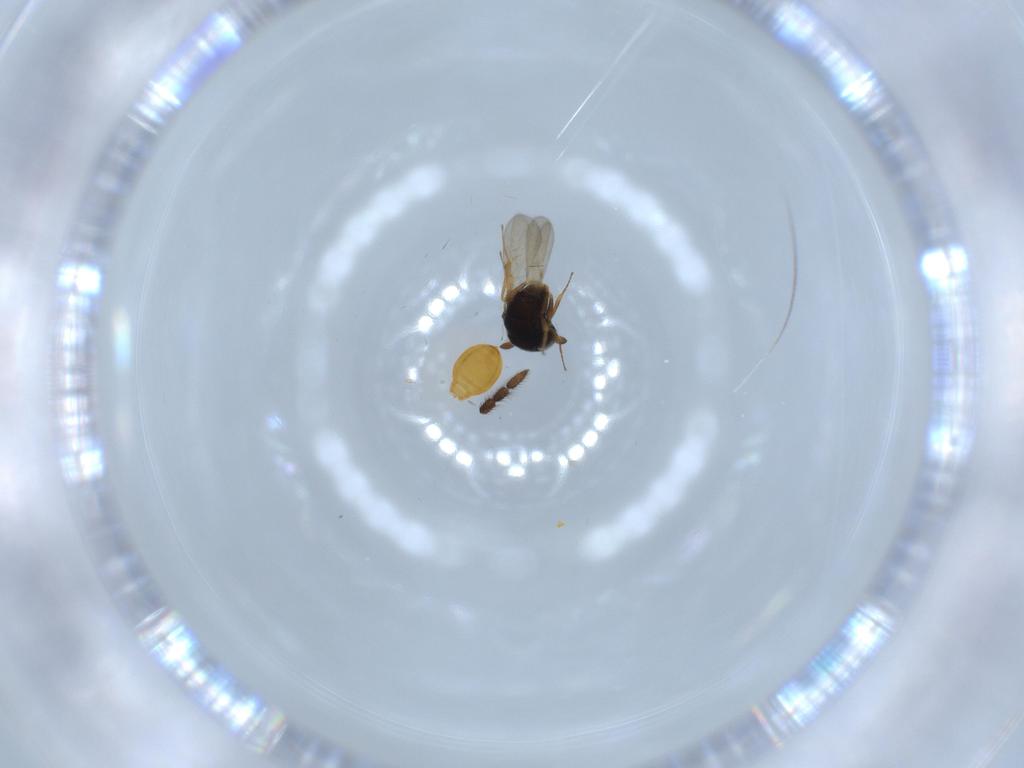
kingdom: Animalia
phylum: Arthropoda
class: Insecta
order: Hymenoptera
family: Scelionidae
